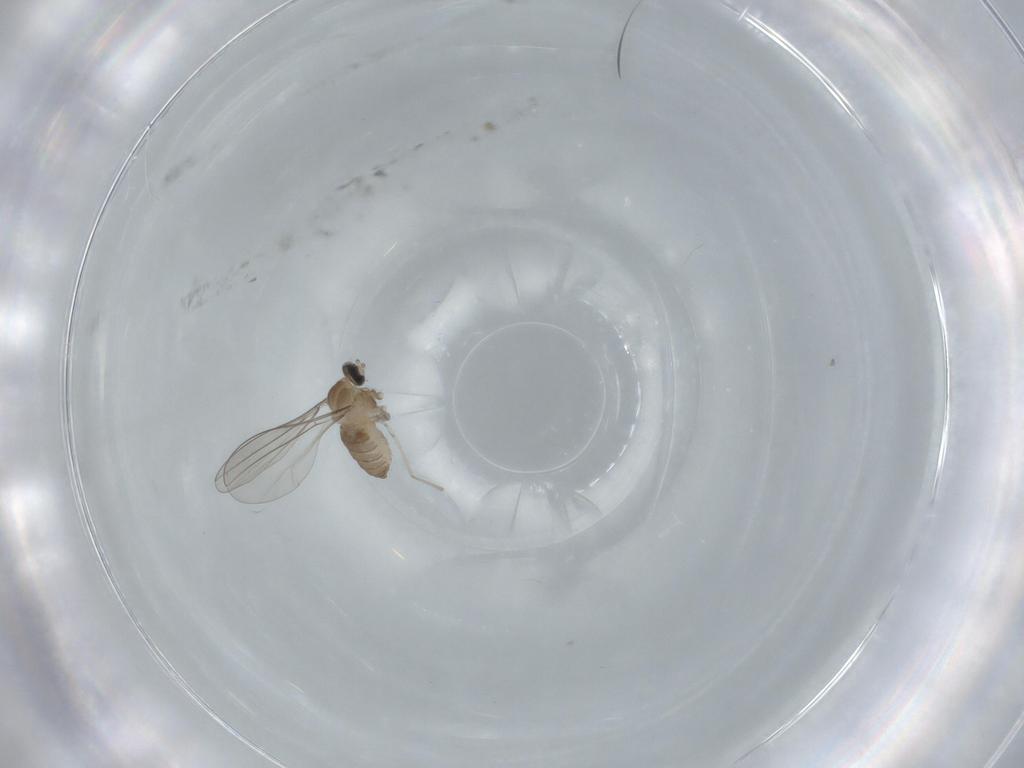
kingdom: Animalia
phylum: Arthropoda
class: Insecta
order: Diptera
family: Cecidomyiidae
